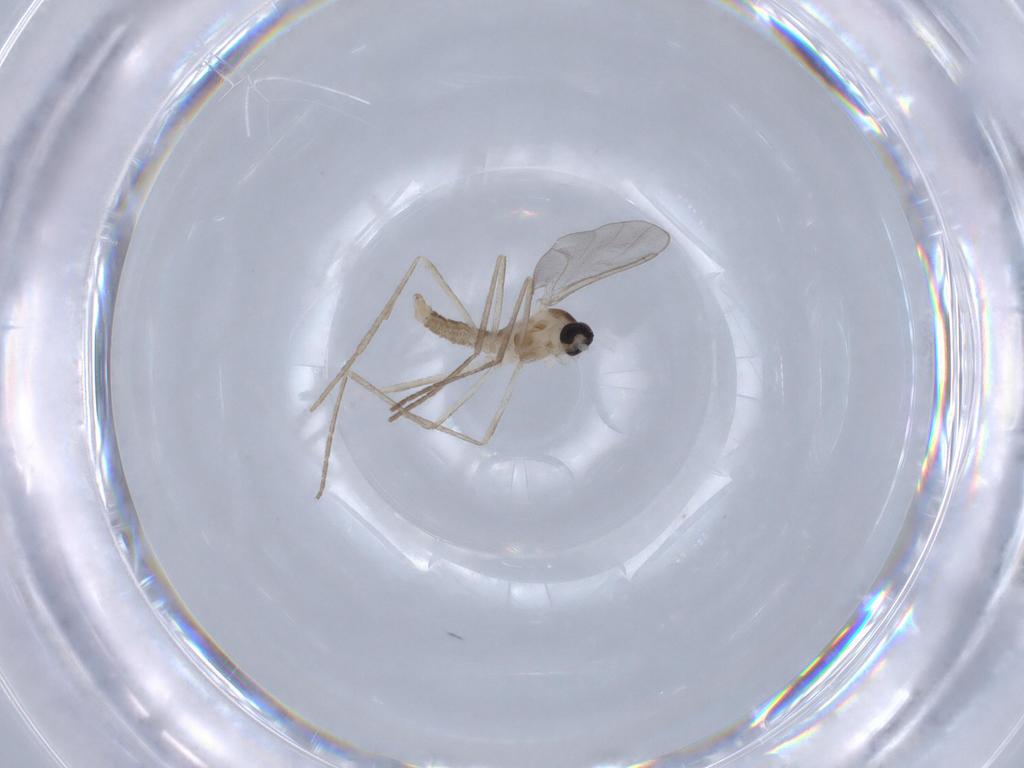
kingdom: Animalia
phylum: Arthropoda
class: Insecta
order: Diptera
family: Cecidomyiidae
